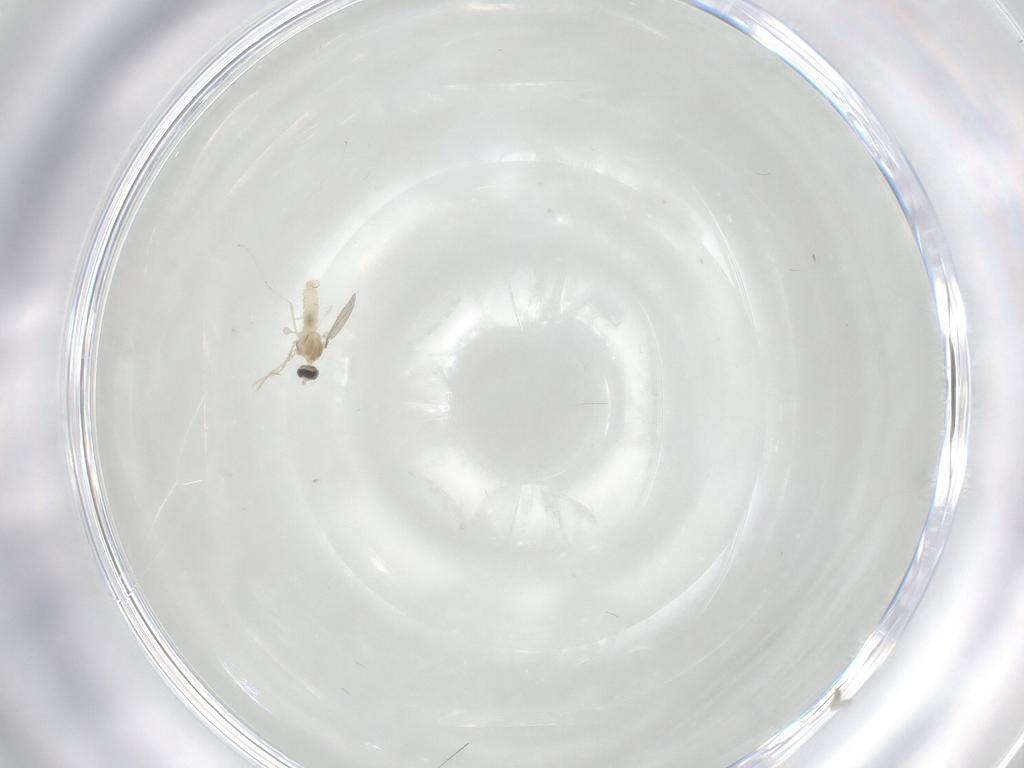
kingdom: Animalia
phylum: Arthropoda
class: Insecta
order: Diptera
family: Cecidomyiidae
